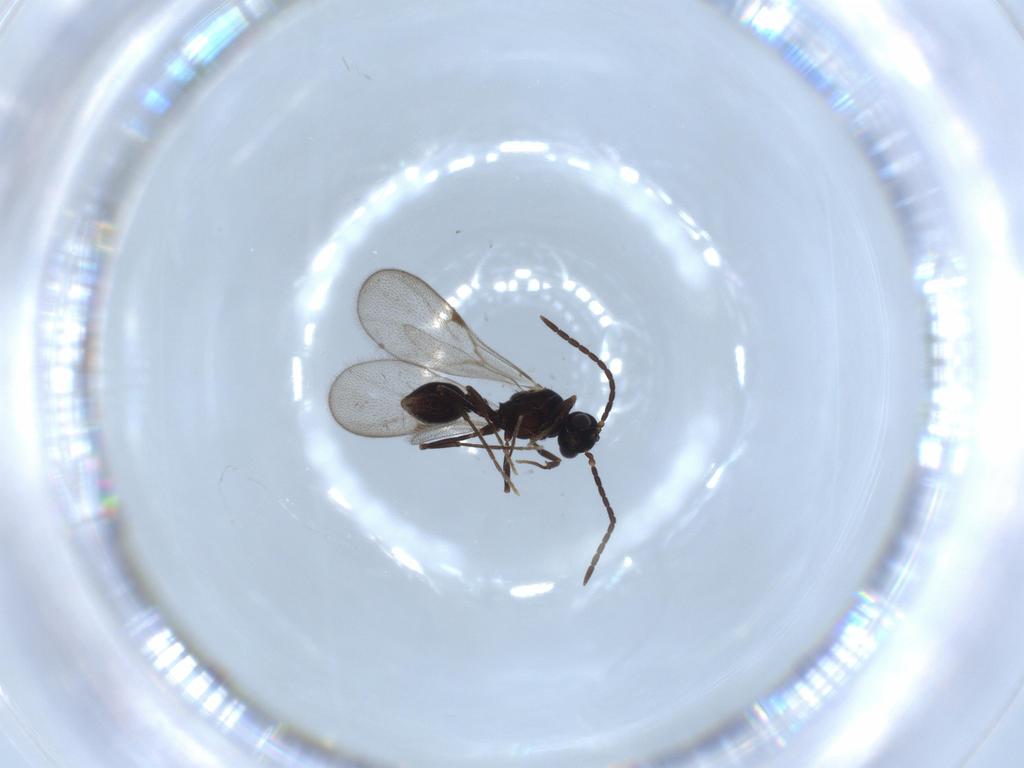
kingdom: Animalia
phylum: Arthropoda
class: Insecta
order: Hymenoptera
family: Formicidae
